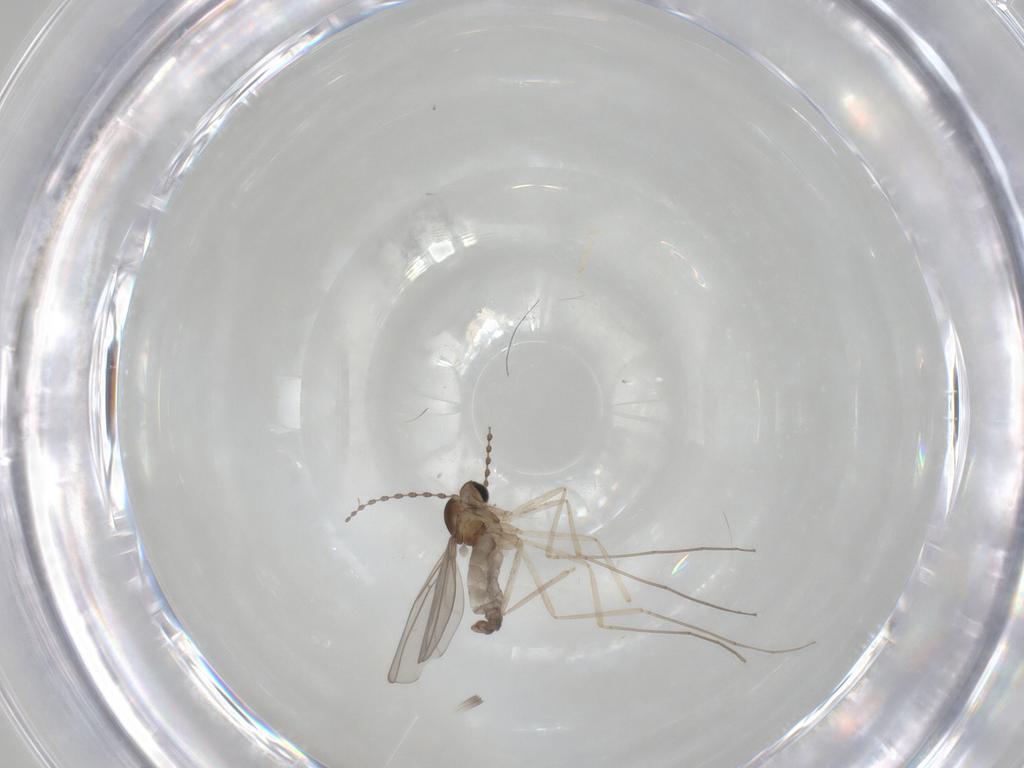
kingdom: Animalia
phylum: Arthropoda
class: Insecta
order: Diptera
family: Cecidomyiidae
